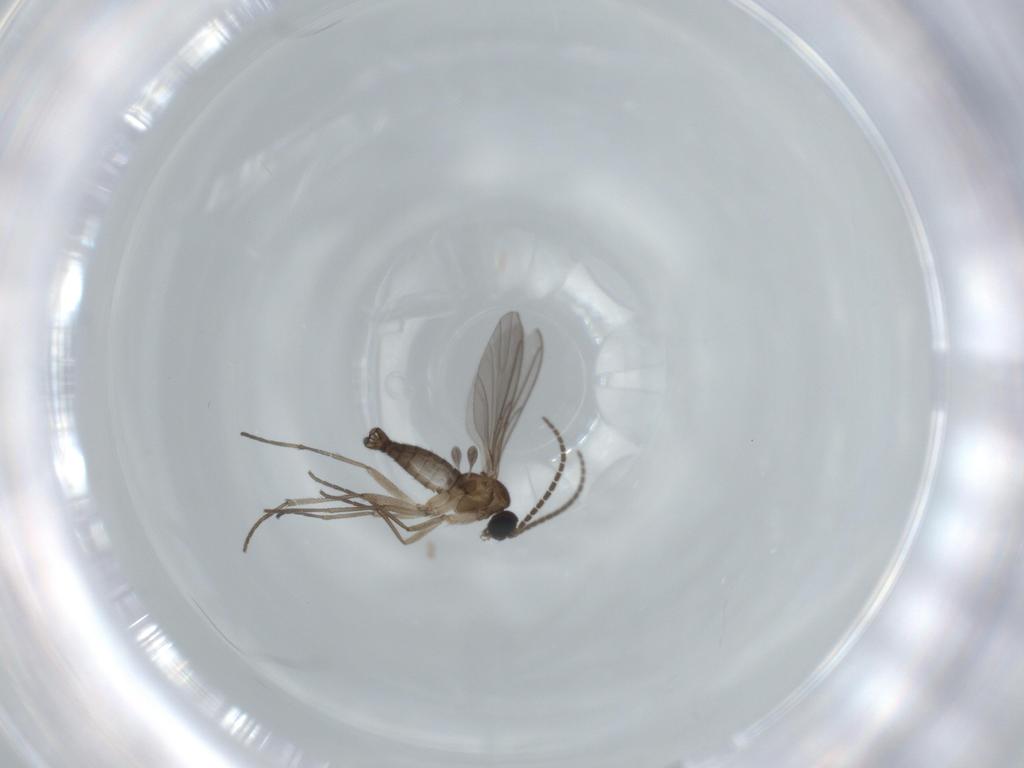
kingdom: Animalia
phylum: Arthropoda
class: Insecta
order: Diptera
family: Sciaridae
